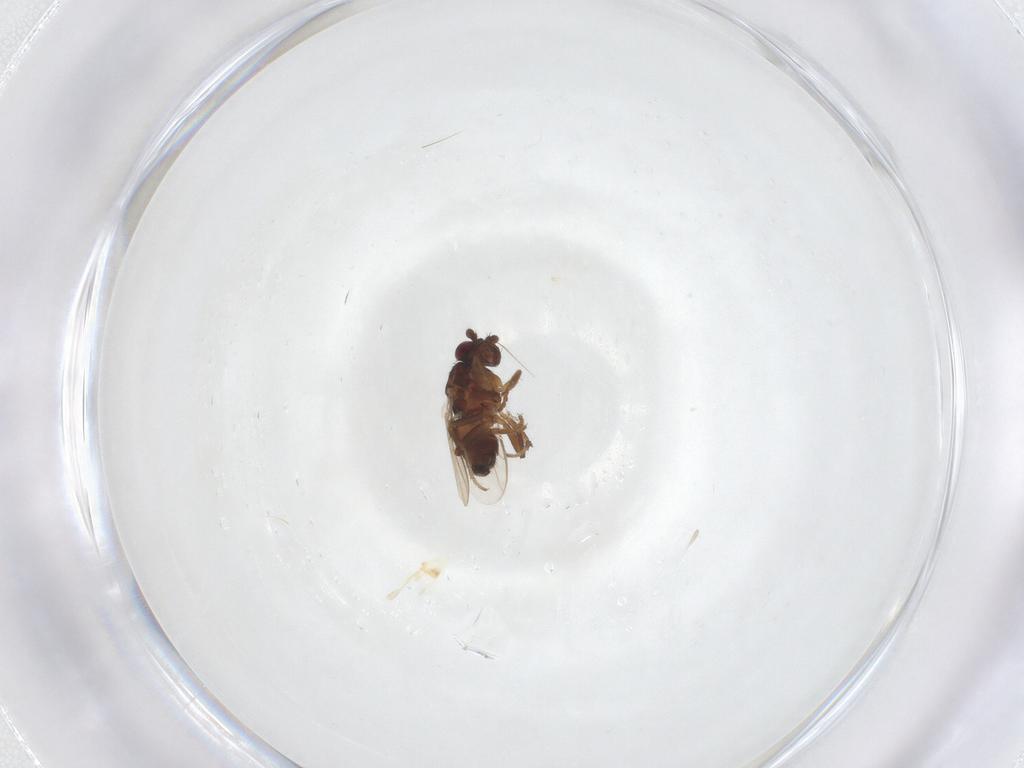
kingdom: Animalia
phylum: Arthropoda
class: Insecta
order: Diptera
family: Sphaeroceridae
